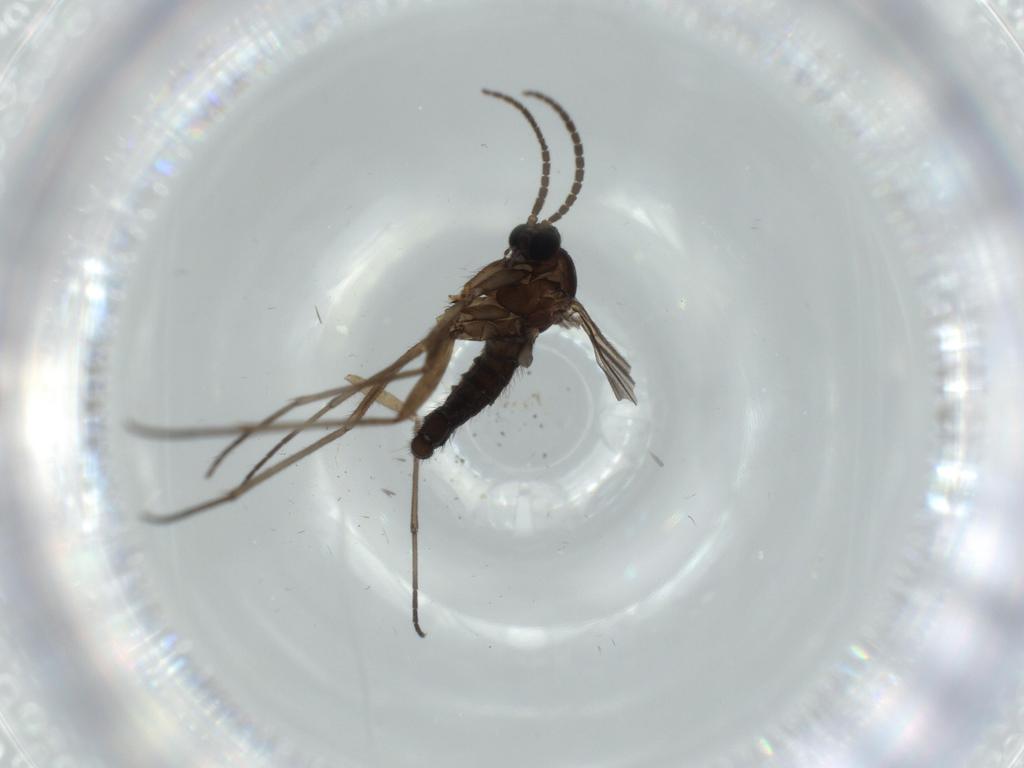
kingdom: Animalia
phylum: Arthropoda
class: Insecta
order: Diptera
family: Sciaridae
